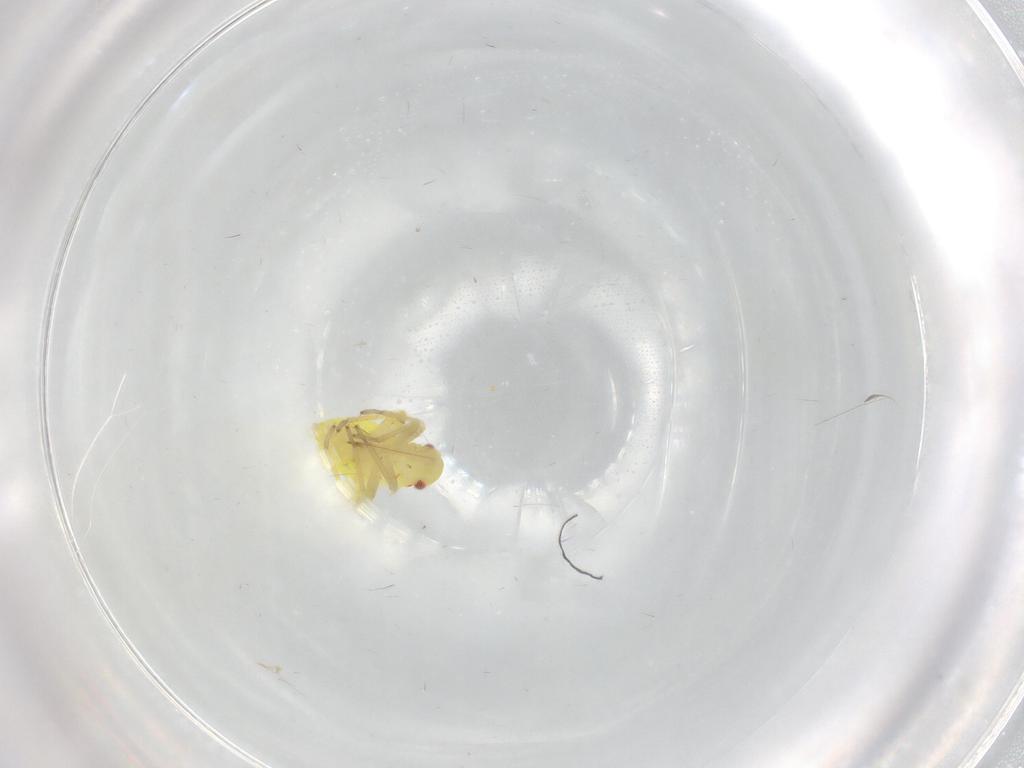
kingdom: Animalia
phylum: Arthropoda
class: Insecta
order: Hemiptera
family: Miridae
